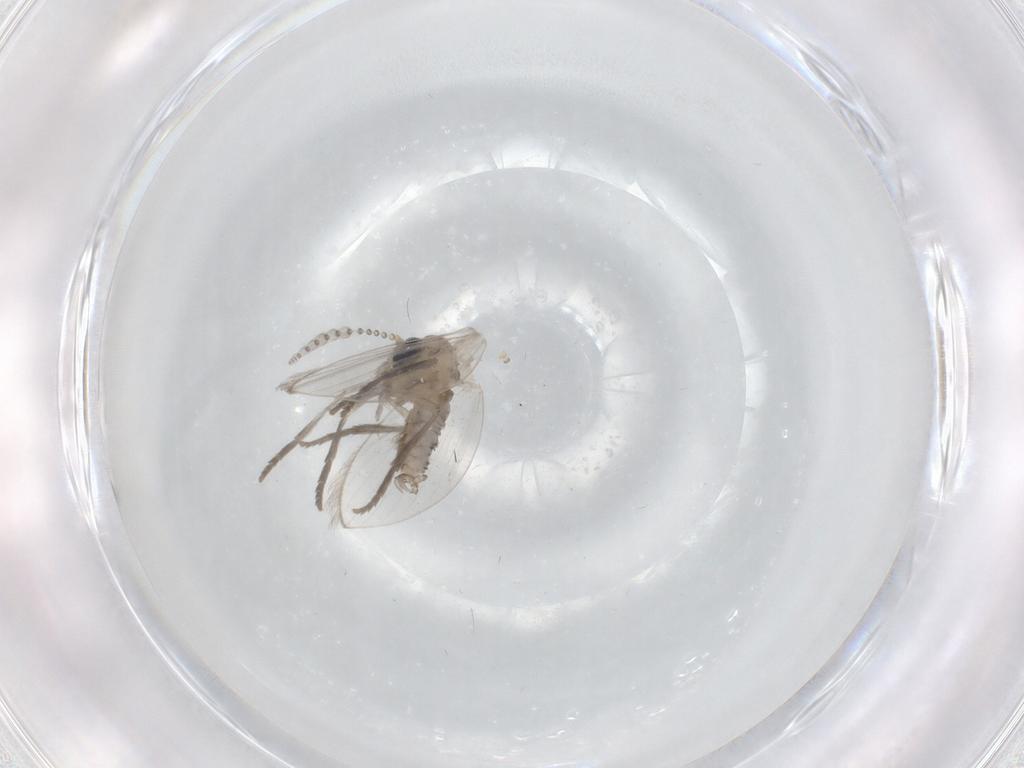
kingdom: Animalia
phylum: Arthropoda
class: Insecta
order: Diptera
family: Psychodidae
